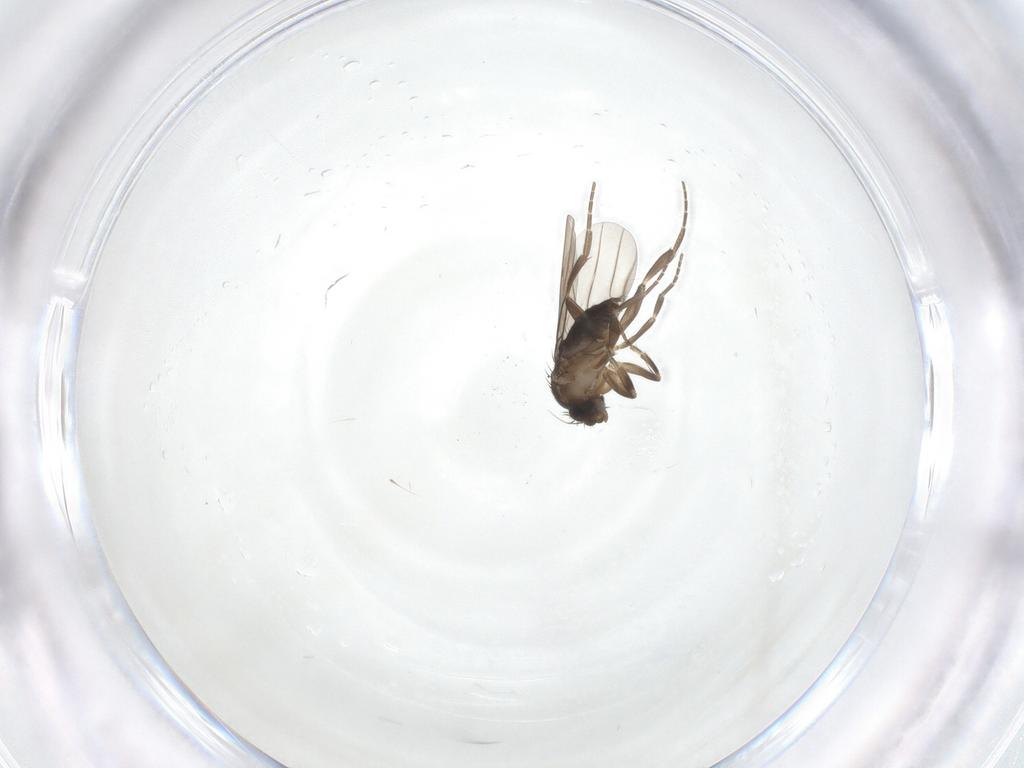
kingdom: Animalia
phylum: Arthropoda
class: Insecta
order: Diptera
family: Phoridae
